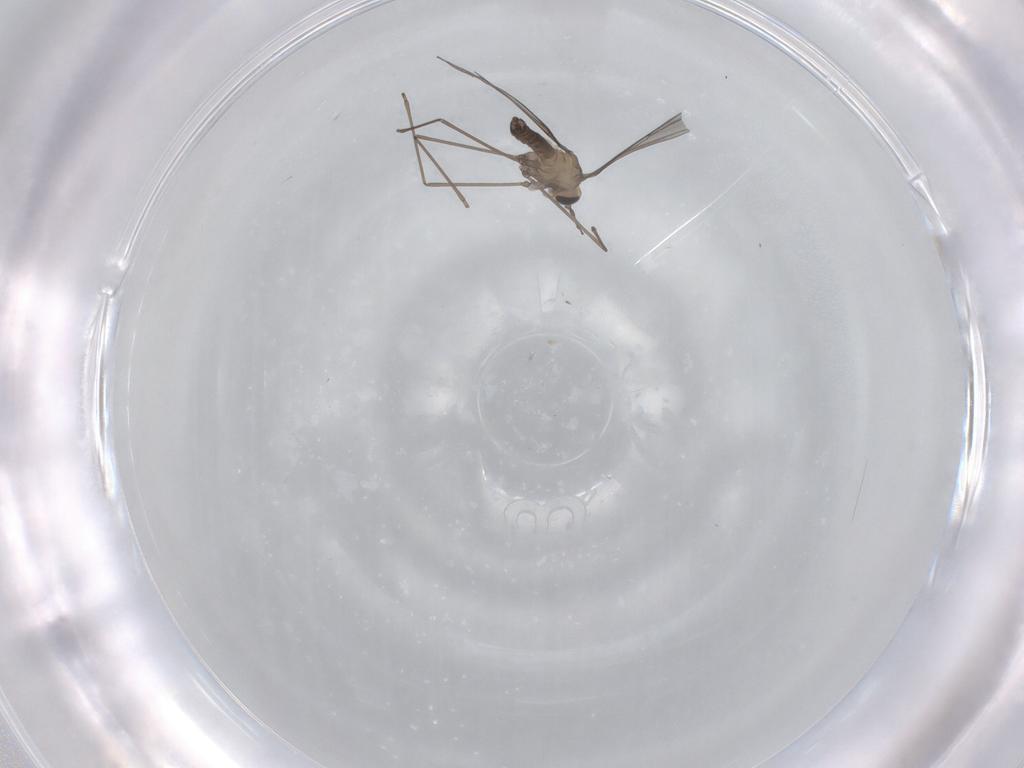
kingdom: Animalia
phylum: Arthropoda
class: Insecta
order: Diptera
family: Cecidomyiidae
